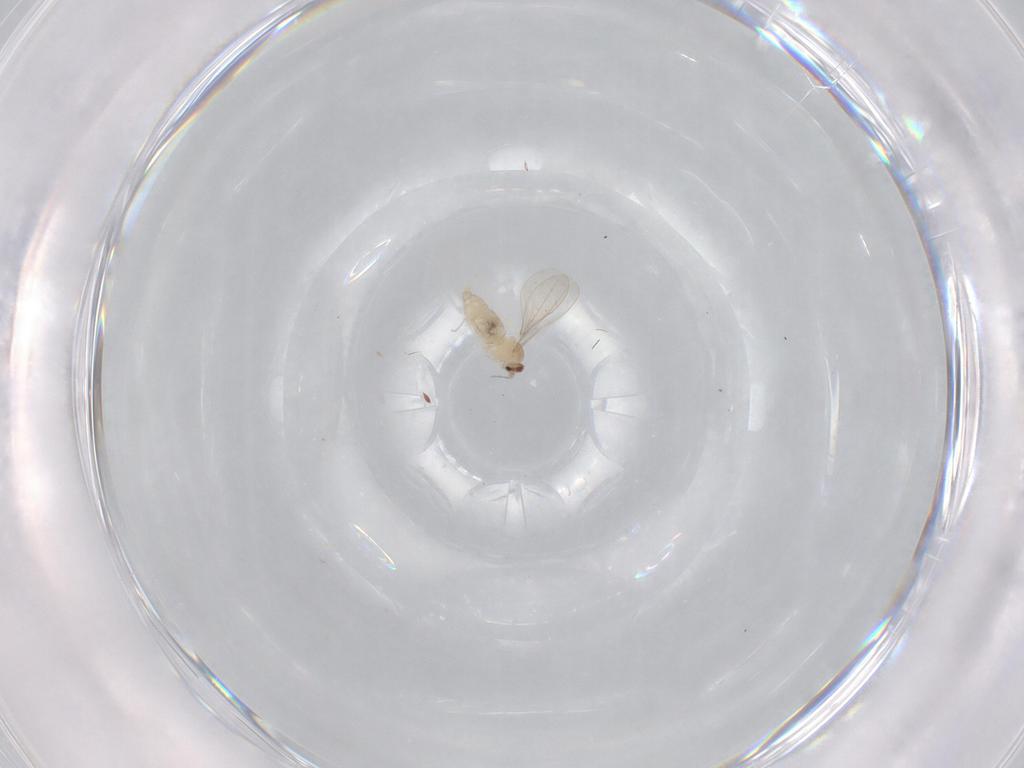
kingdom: Animalia
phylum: Arthropoda
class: Insecta
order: Diptera
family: Cecidomyiidae
